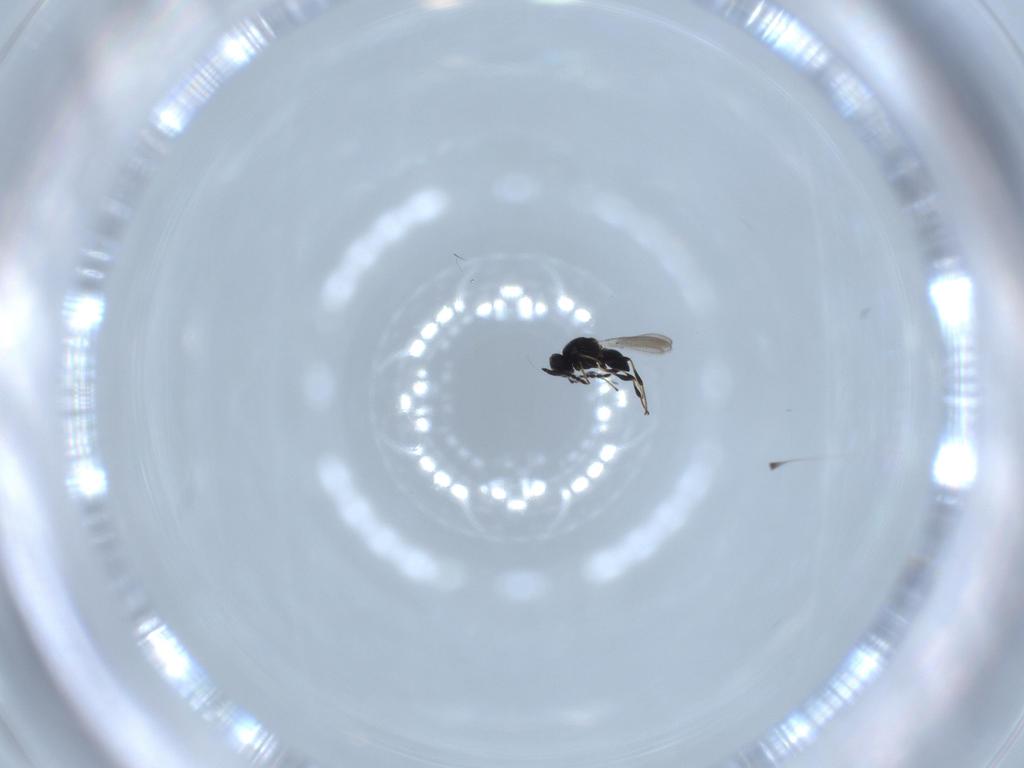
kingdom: Animalia
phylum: Arthropoda
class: Insecta
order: Hymenoptera
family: Platygastridae
